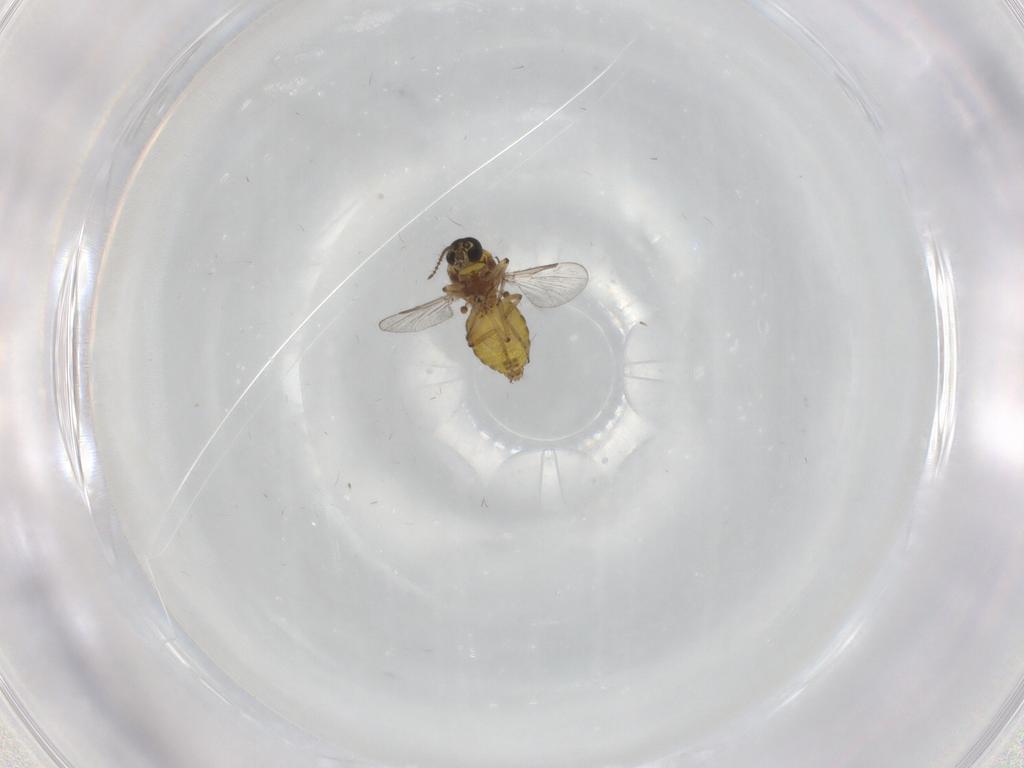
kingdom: Animalia
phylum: Arthropoda
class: Insecta
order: Diptera
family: Ceratopogonidae
